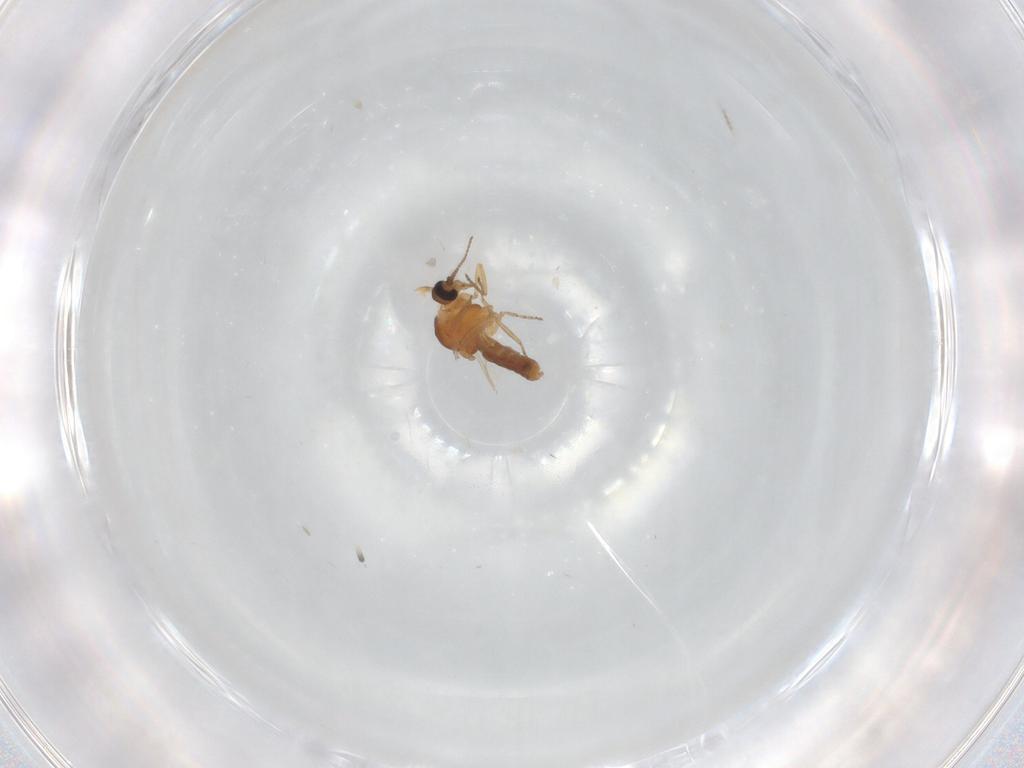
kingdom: Animalia
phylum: Arthropoda
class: Insecta
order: Diptera
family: Ceratopogonidae
